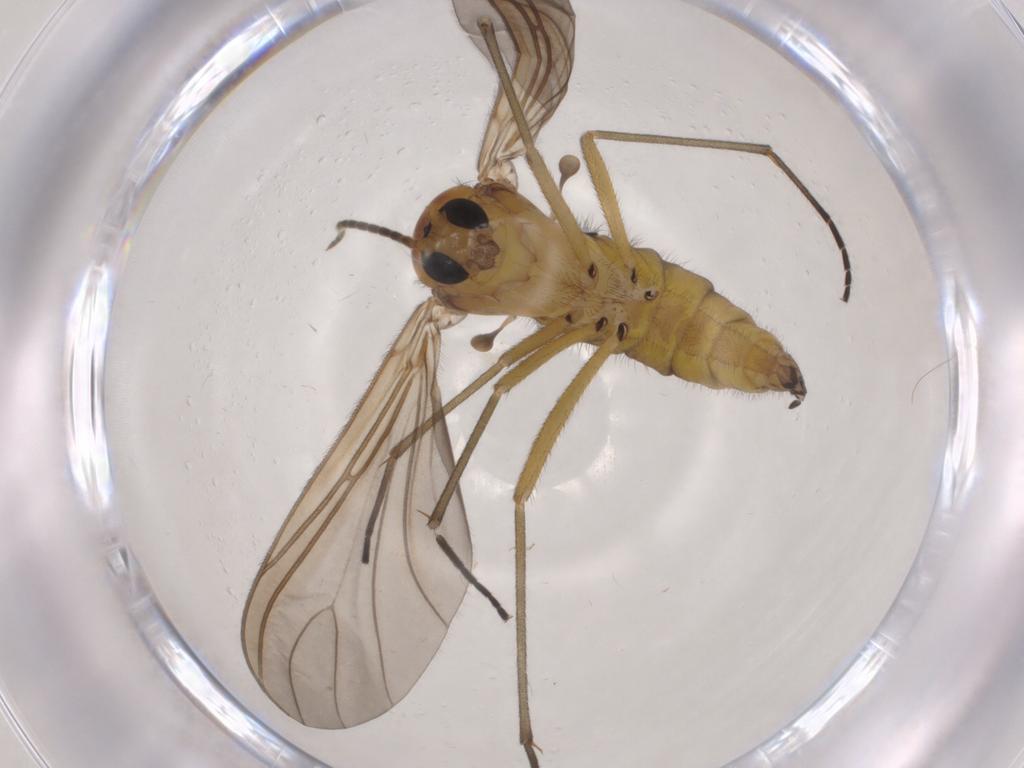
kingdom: Animalia
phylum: Arthropoda
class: Insecta
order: Diptera
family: Sciaridae
